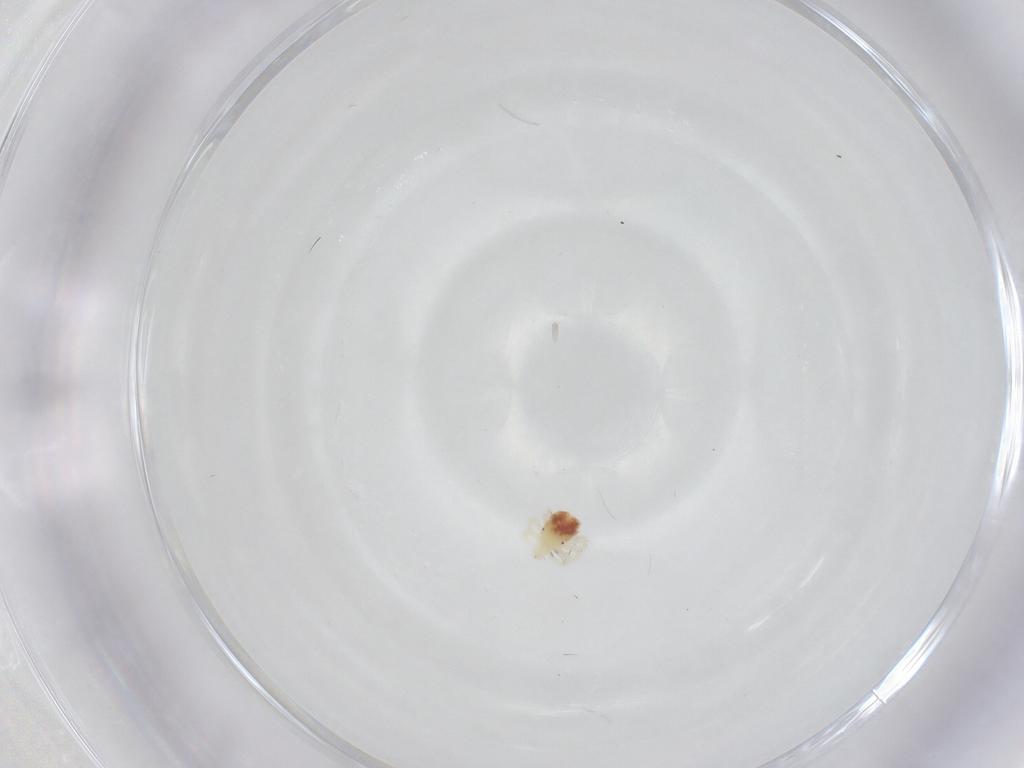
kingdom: Animalia
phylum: Arthropoda
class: Arachnida
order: Trombidiformes
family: Anystidae
